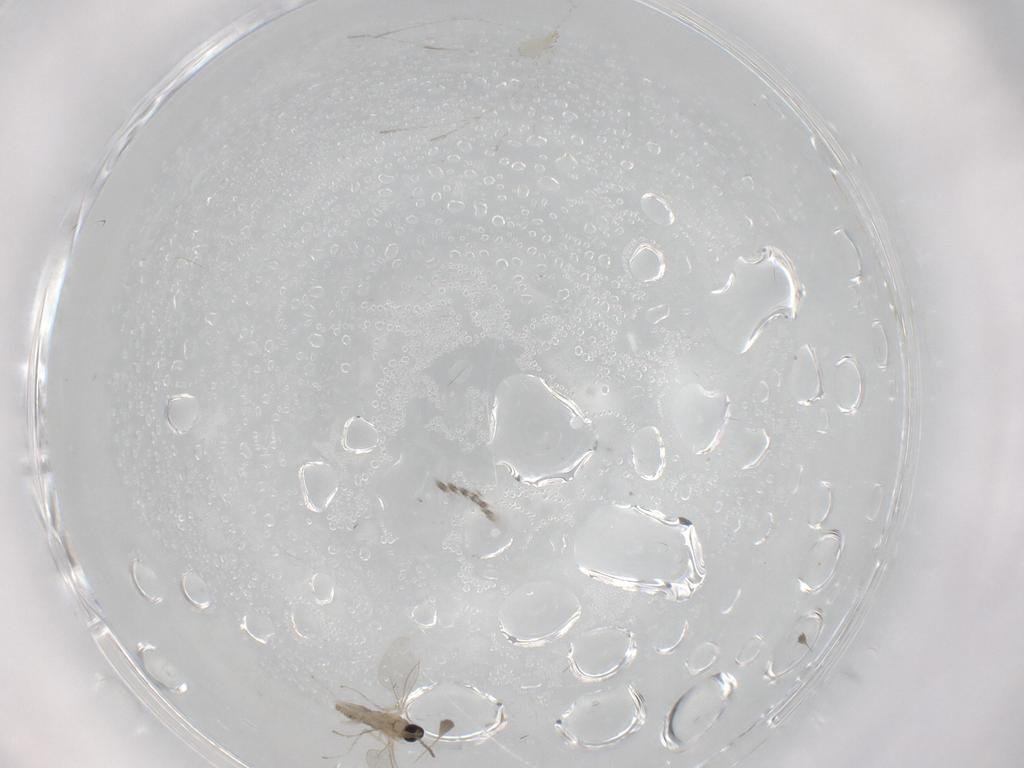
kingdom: Animalia
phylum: Arthropoda
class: Insecta
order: Diptera
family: Cecidomyiidae
